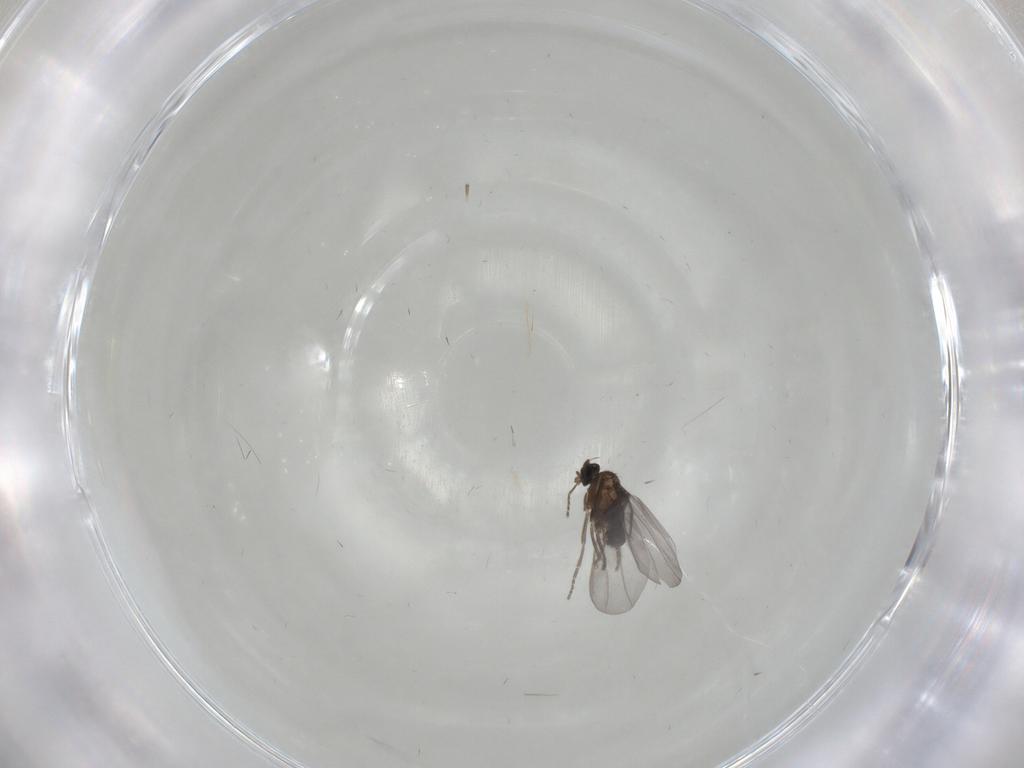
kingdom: Animalia
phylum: Arthropoda
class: Insecta
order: Diptera
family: Cecidomyiidae
